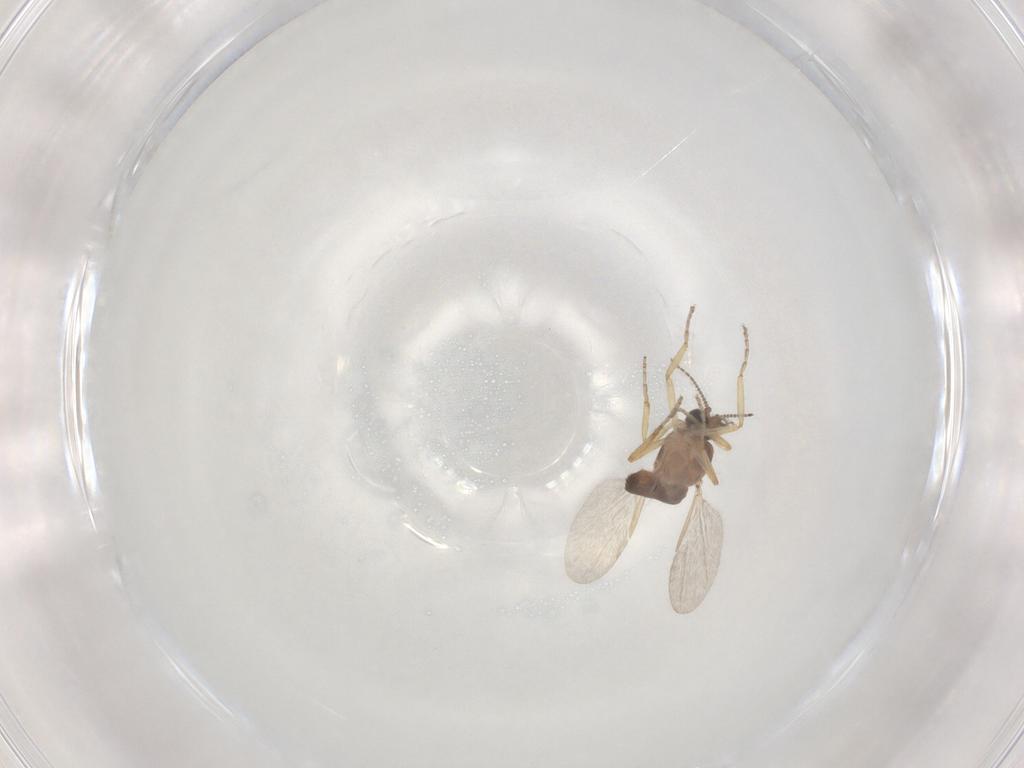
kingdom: Animalia
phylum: Arthropoda
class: Insecta
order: Diptera
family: Ceratopogonidae
